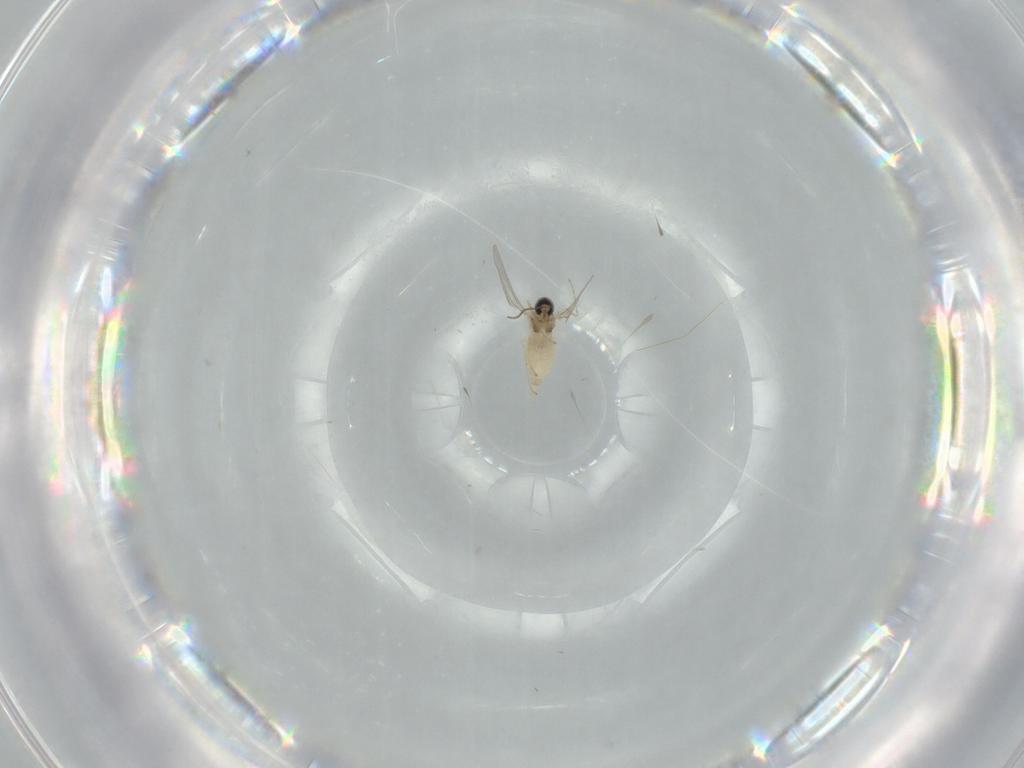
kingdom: Animalia
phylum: Arthropoda
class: Insecta
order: Diptera
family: Cecidomyiidae
